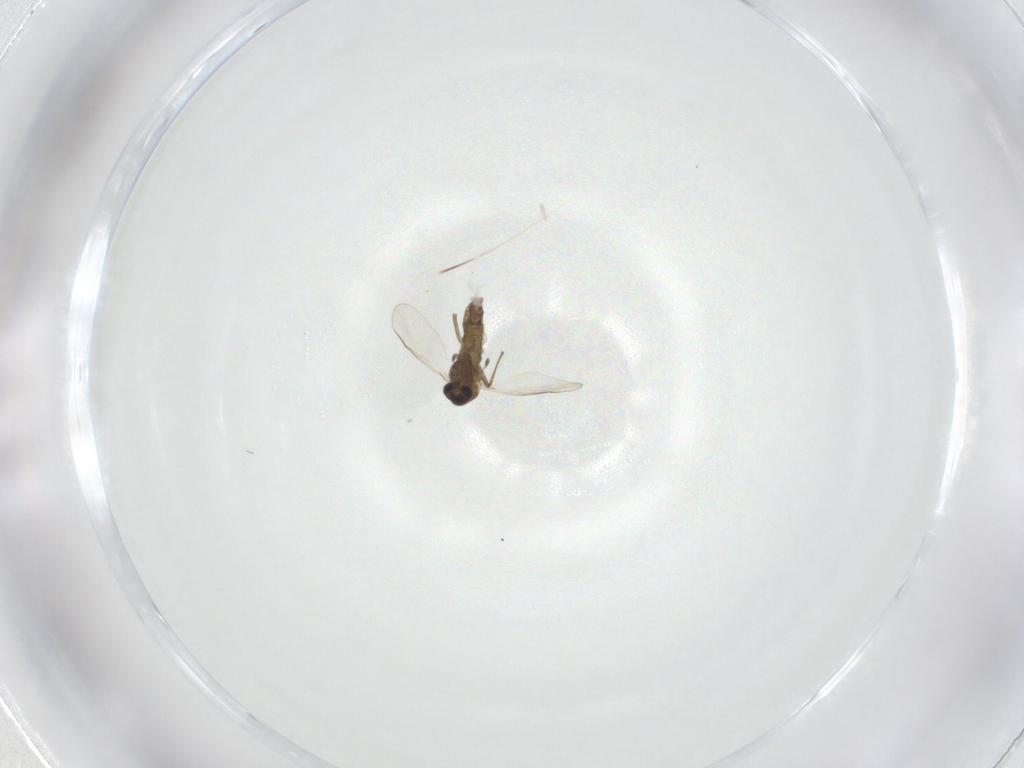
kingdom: Animalia
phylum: Arthropoda
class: Insecta
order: Diptera
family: Chironomidae
